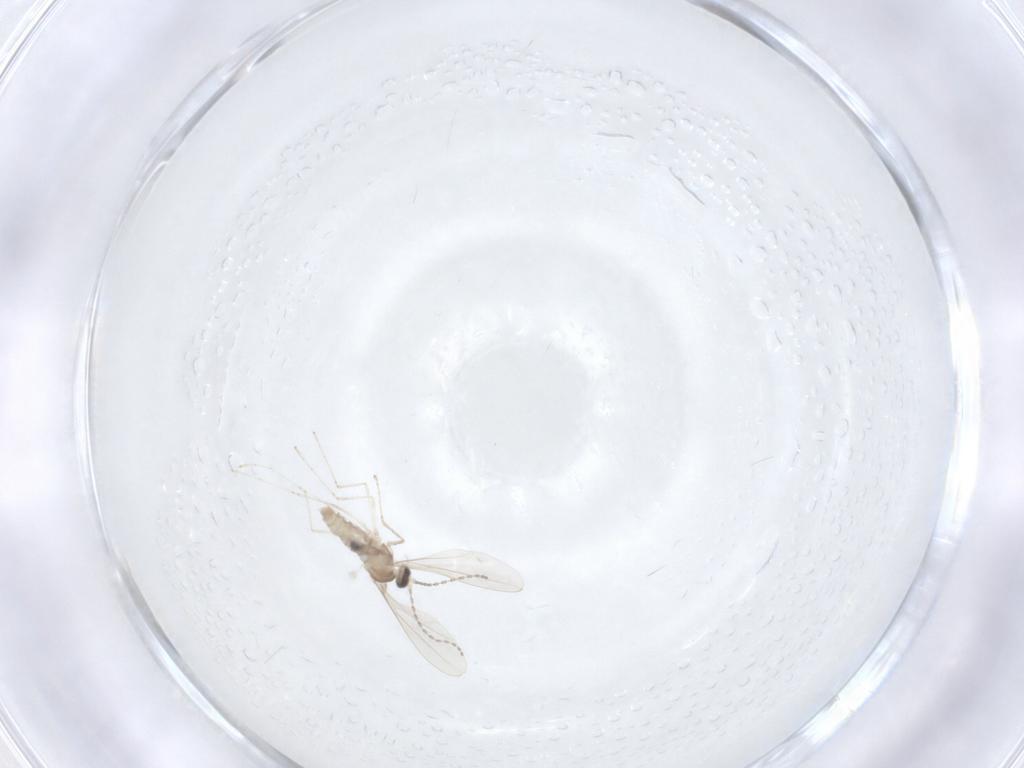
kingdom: Animalia
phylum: Arthropoda
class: Insecta
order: Diptera
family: Cecidomyiidae
